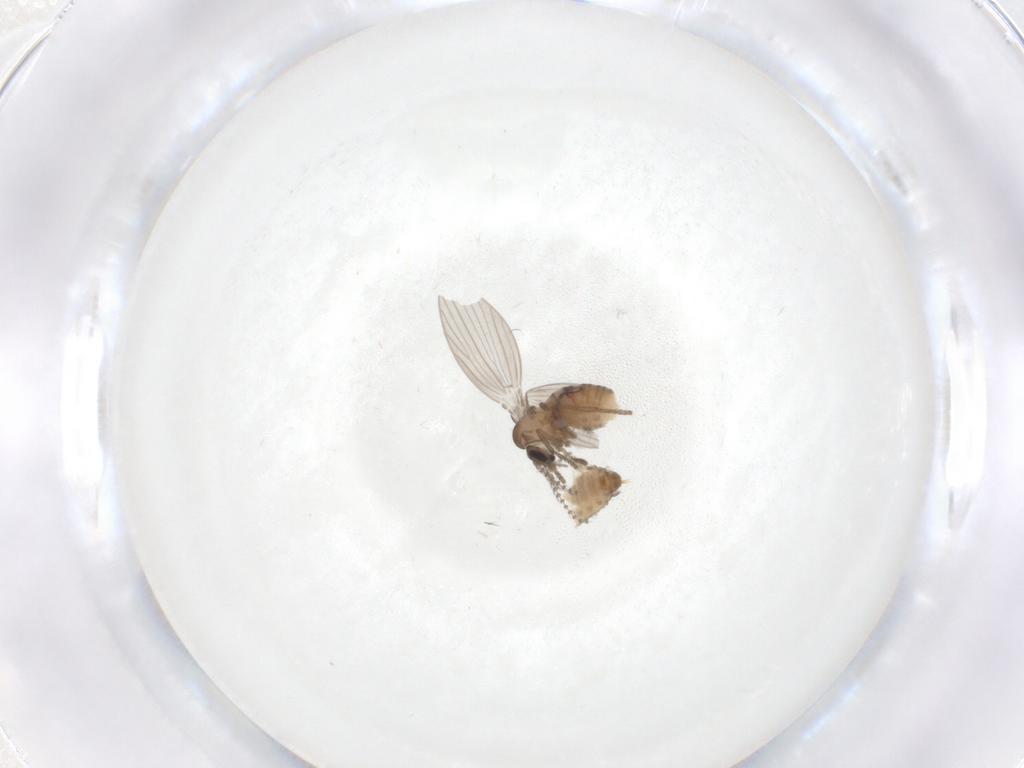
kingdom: Animalia
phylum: Arthropoda
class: Insecta
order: Diptera
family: Psychodidae
